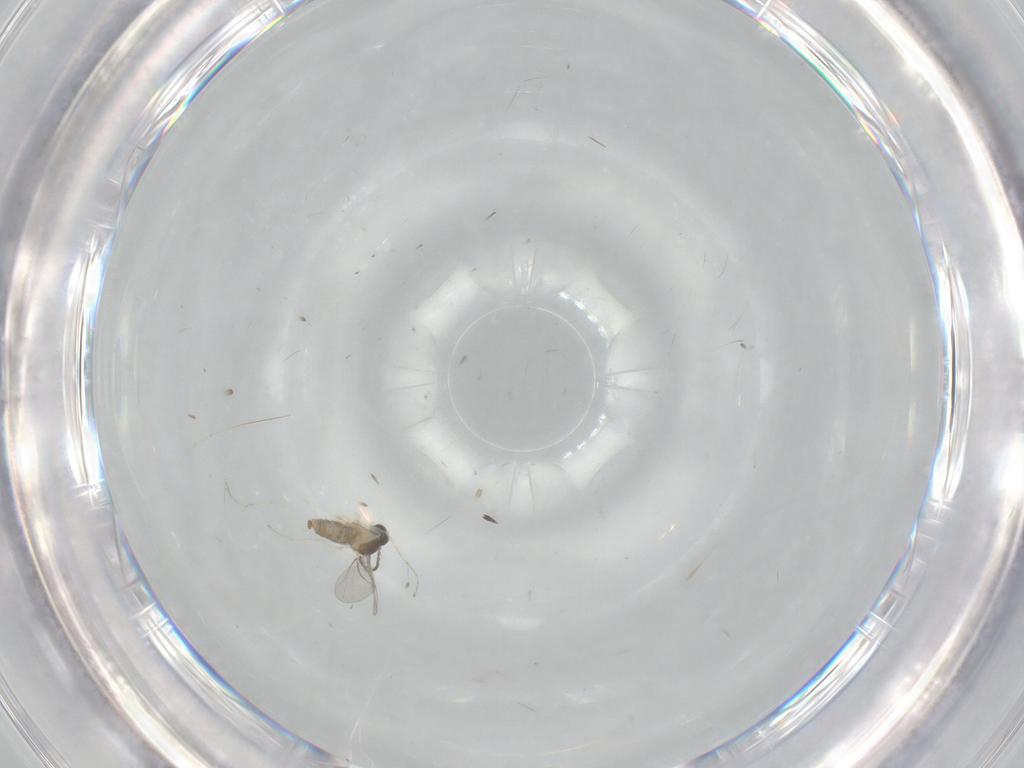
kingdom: Animalia
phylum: Arthropoda
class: Insecta
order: Diptera
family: Cecidomyiidae
